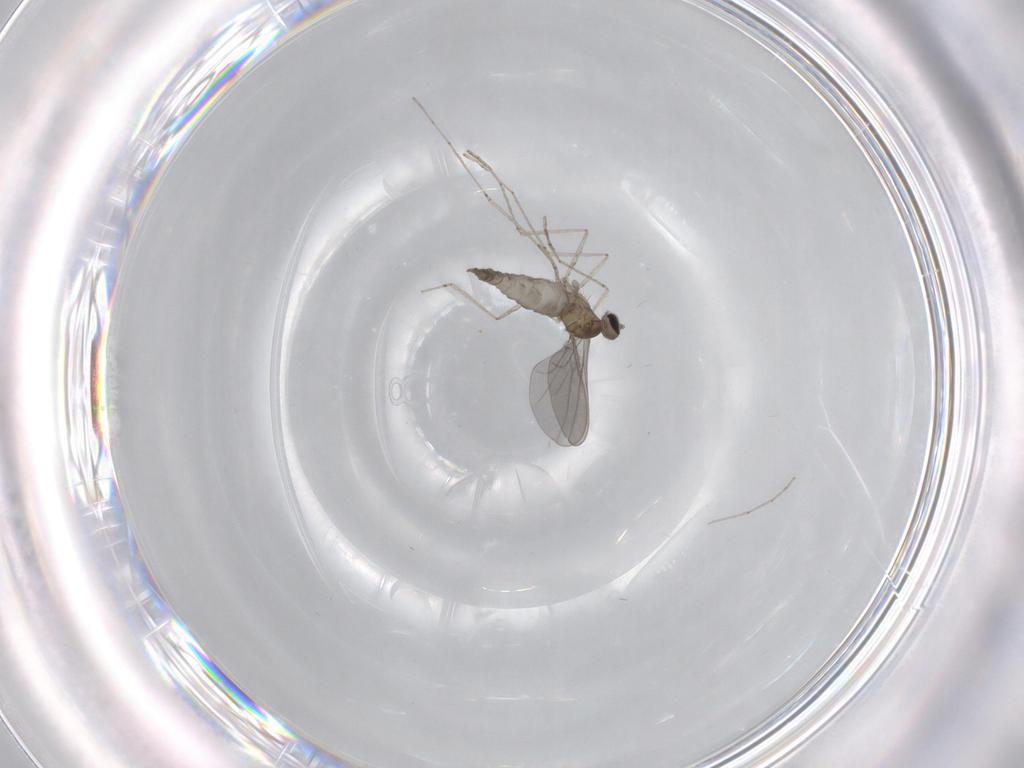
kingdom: Animalia
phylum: Arthropoda
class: Insecta
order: Diptera
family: Cecidomyiidae
